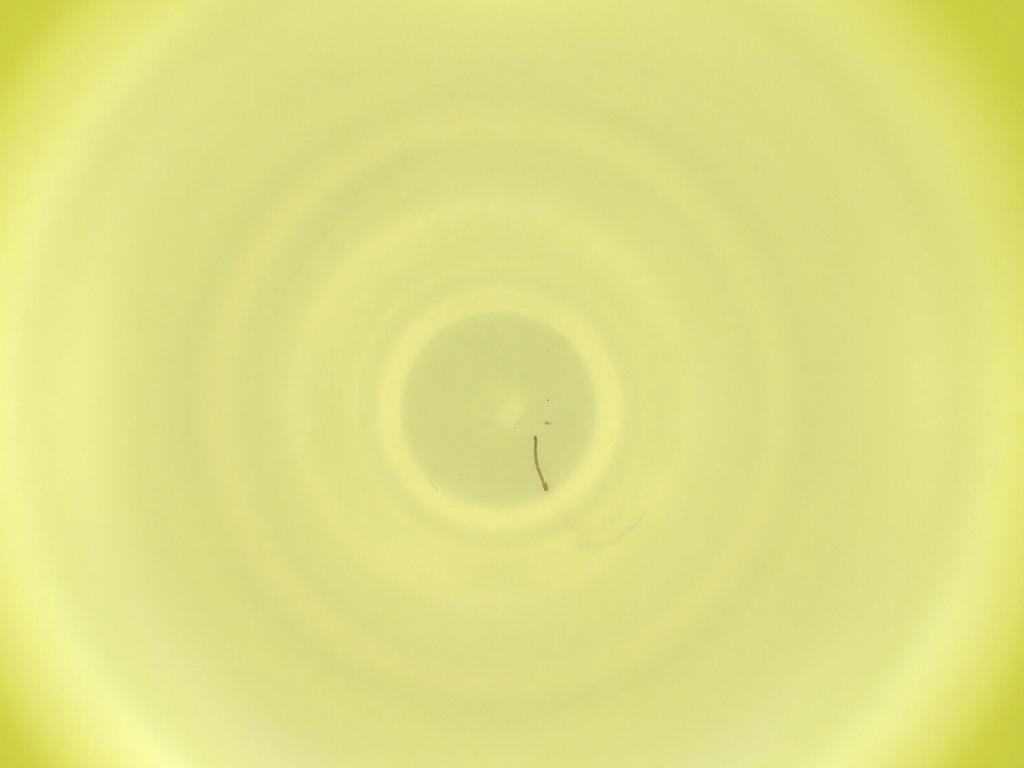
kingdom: Animalia
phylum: Arthropoda
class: Insecta
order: Diptera
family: Cecidomyiidae
